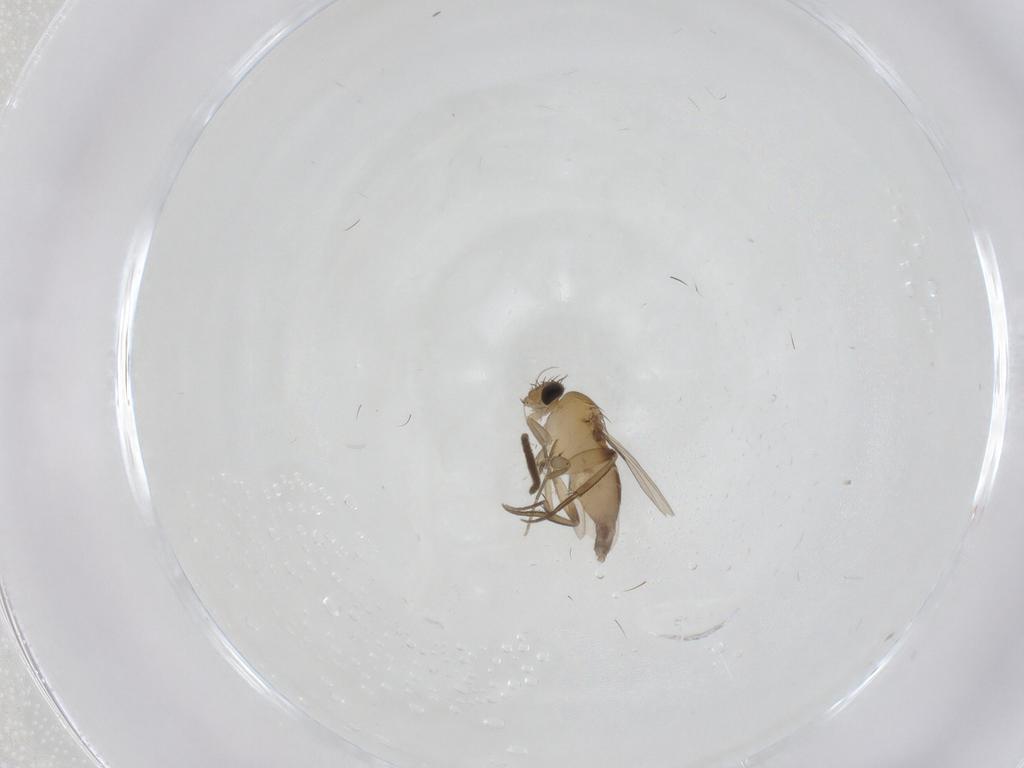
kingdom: Animalia
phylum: Arthropoda
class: Insecta
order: Diptera
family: Phoridae
